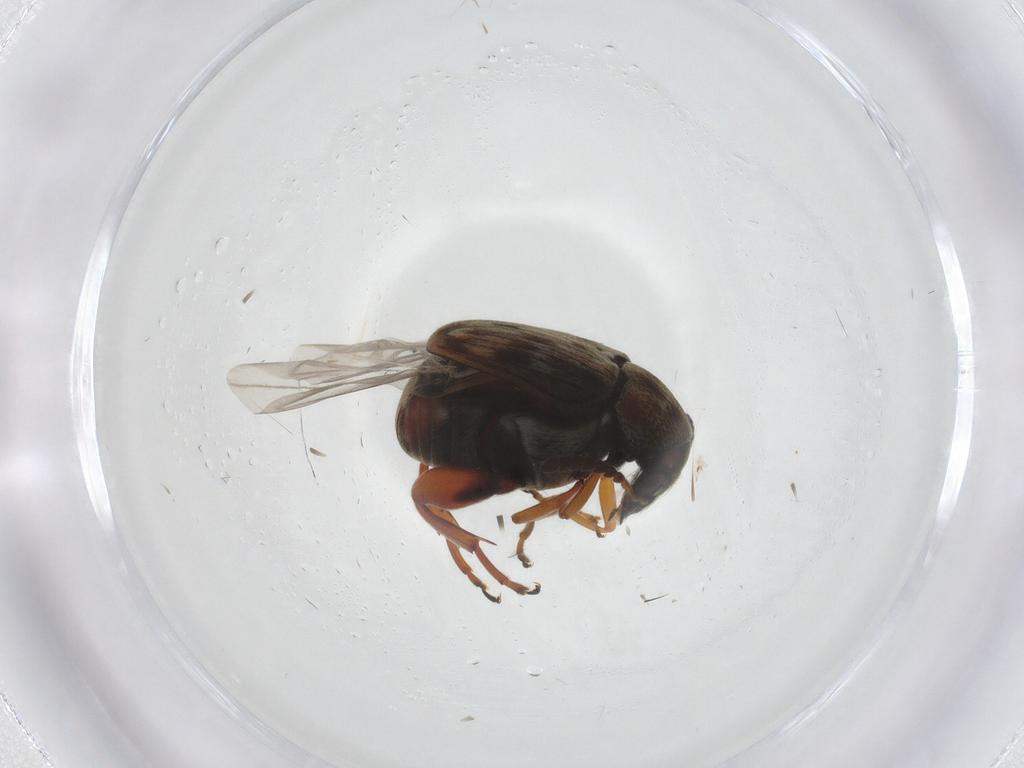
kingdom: Animalia
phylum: Arthropoda
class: Insecta
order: Coleoptera
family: Chrysomelidae
